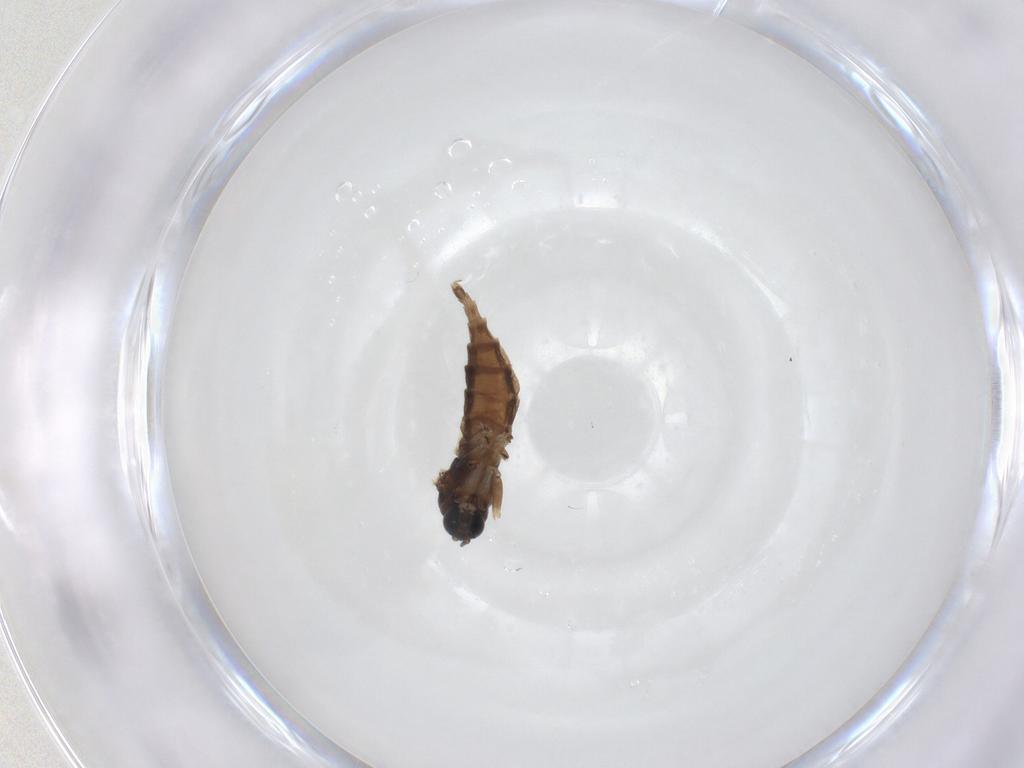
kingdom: Animalia
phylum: Arthropoda
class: Insecta
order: Diptera
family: Sciaridae
